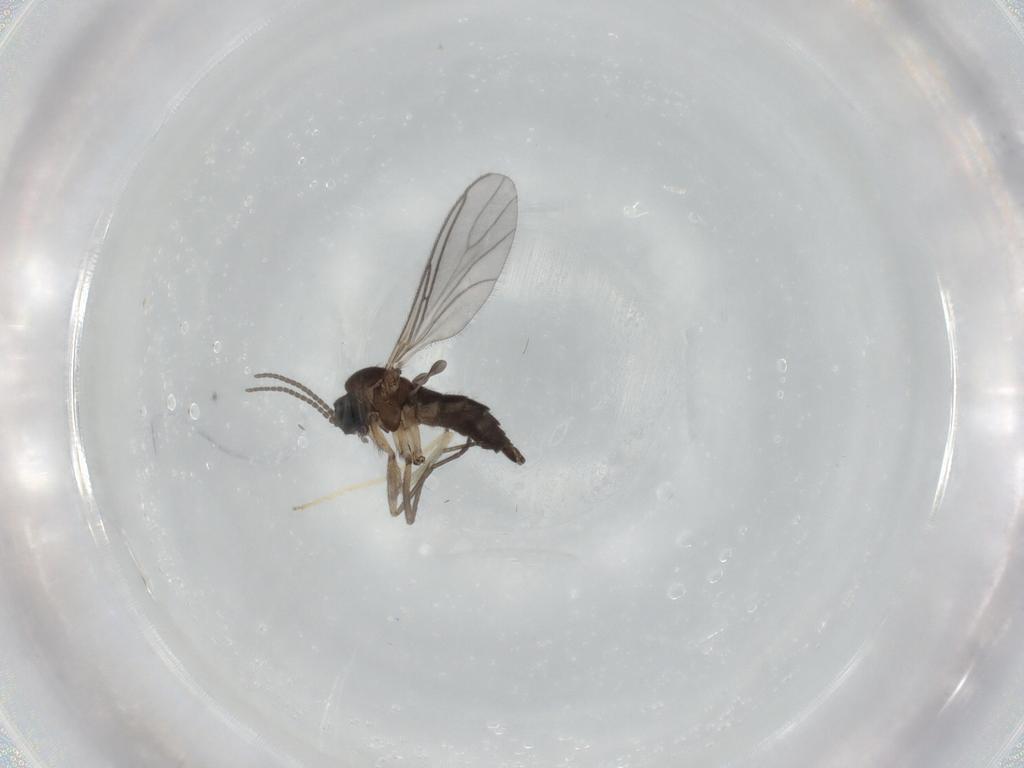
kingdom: Animalia
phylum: Arthropoda
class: Insecta
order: Diptera
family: Sciaridae
